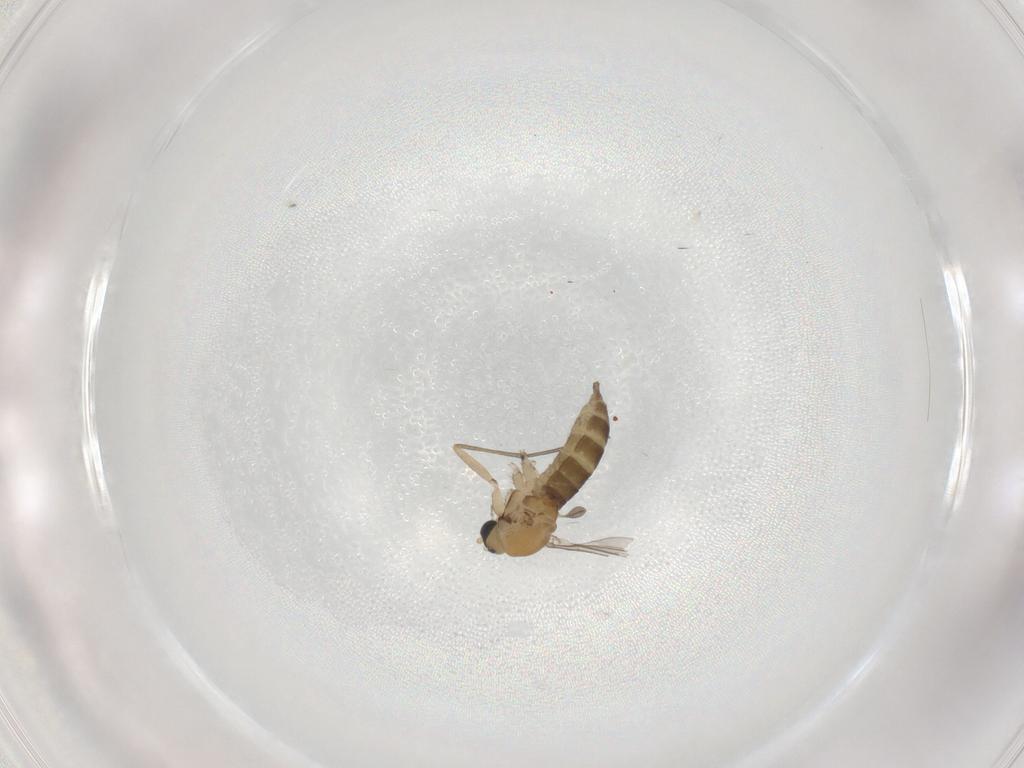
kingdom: Animalia
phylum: Arthropoda
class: Insecta
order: Diptera
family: Sciaridae
